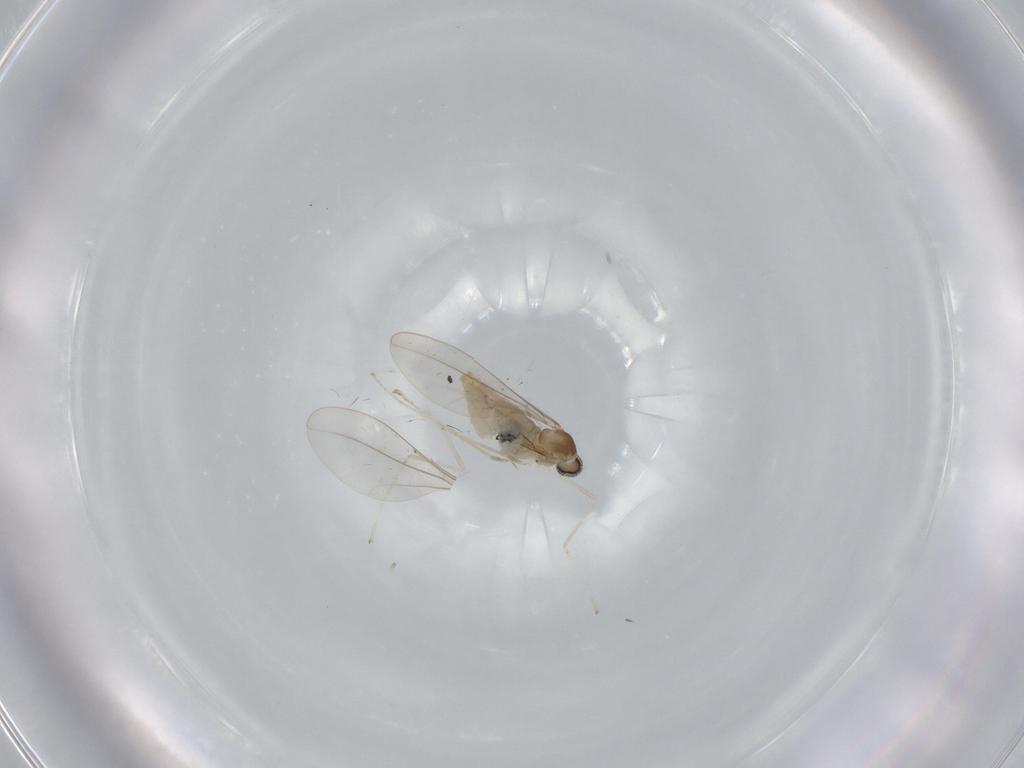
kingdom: Animalia
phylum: Arthropoda
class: Insecta
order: Diptera
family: Cecidomyiidae
